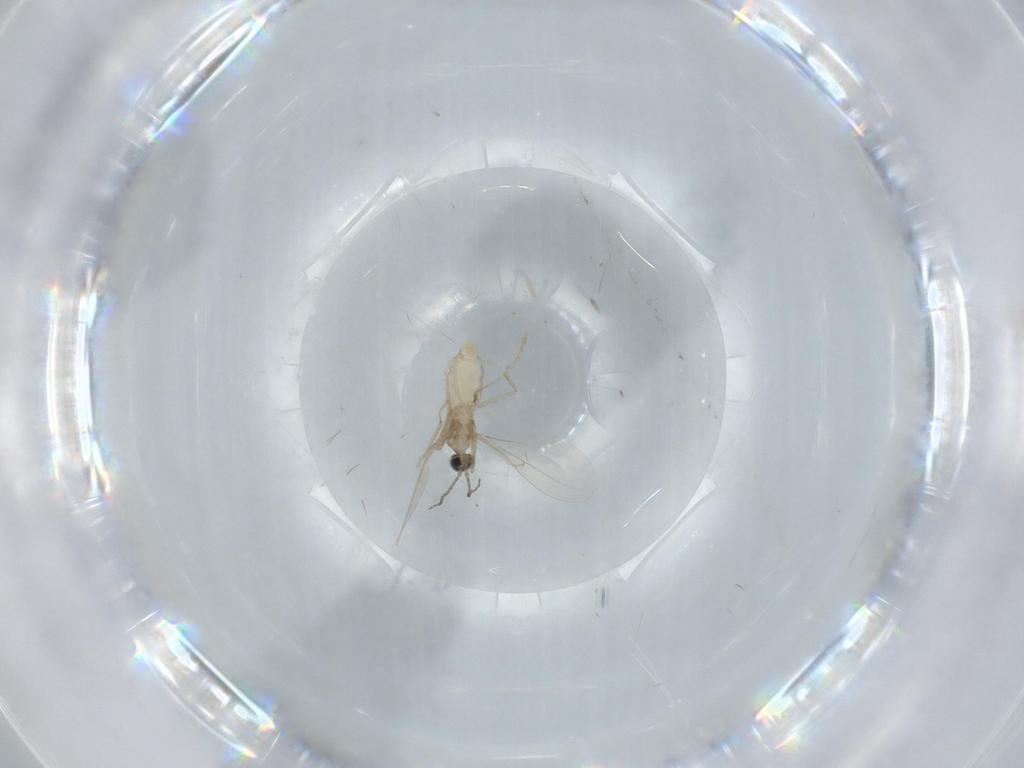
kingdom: Animalia
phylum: Arthropoda
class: Insecta
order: Diptera
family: Cecidomyiidae
